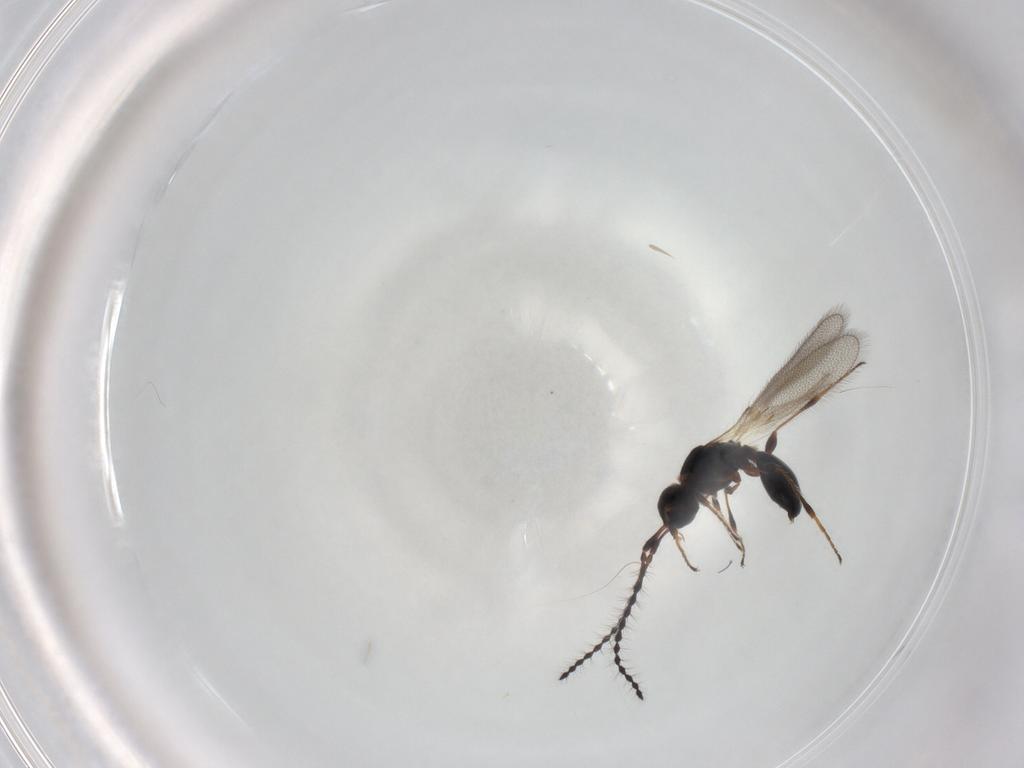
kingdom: Animalia
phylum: Arthropoda
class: Insecta
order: Hymenoptera
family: Diapriidae
